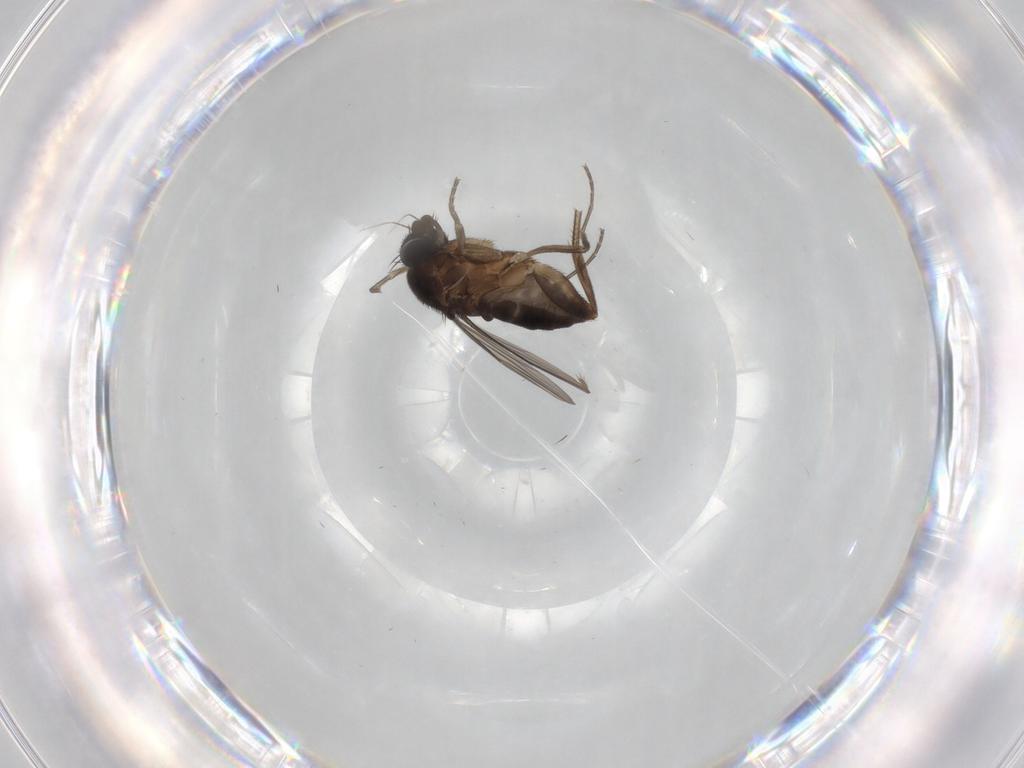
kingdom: Animalia
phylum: Arthropoda
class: Insecta
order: Diptera
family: Phoridae
